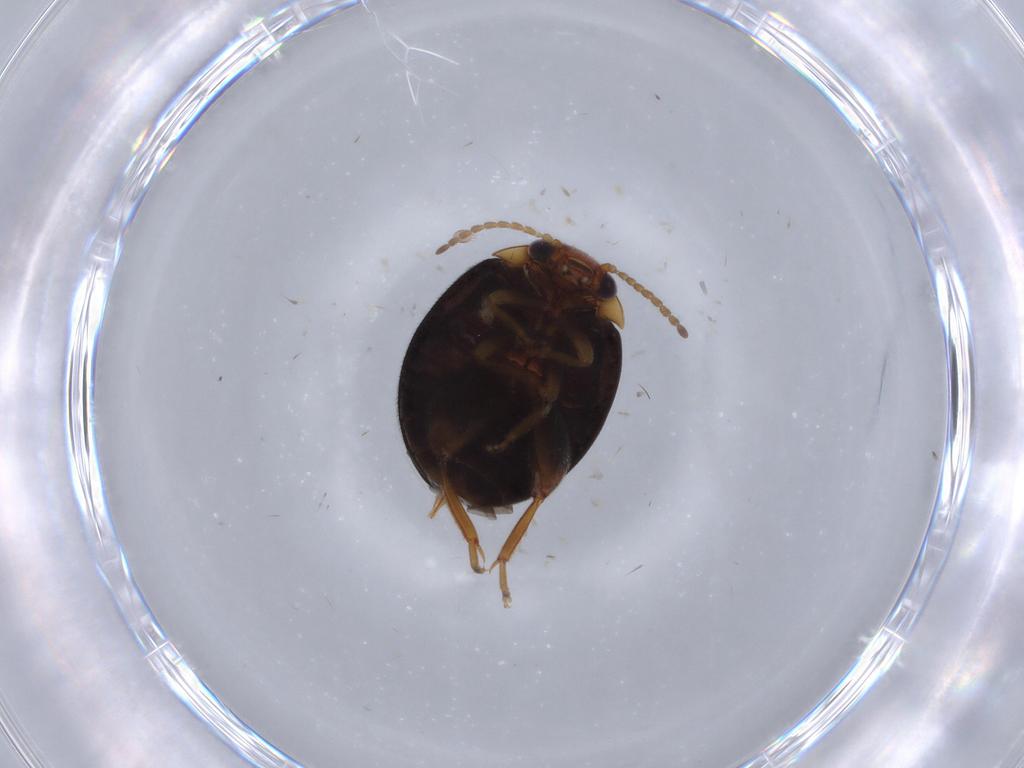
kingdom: Animalia
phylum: Arthropoda
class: Insecta
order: Coleoptera
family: Scirtidae
